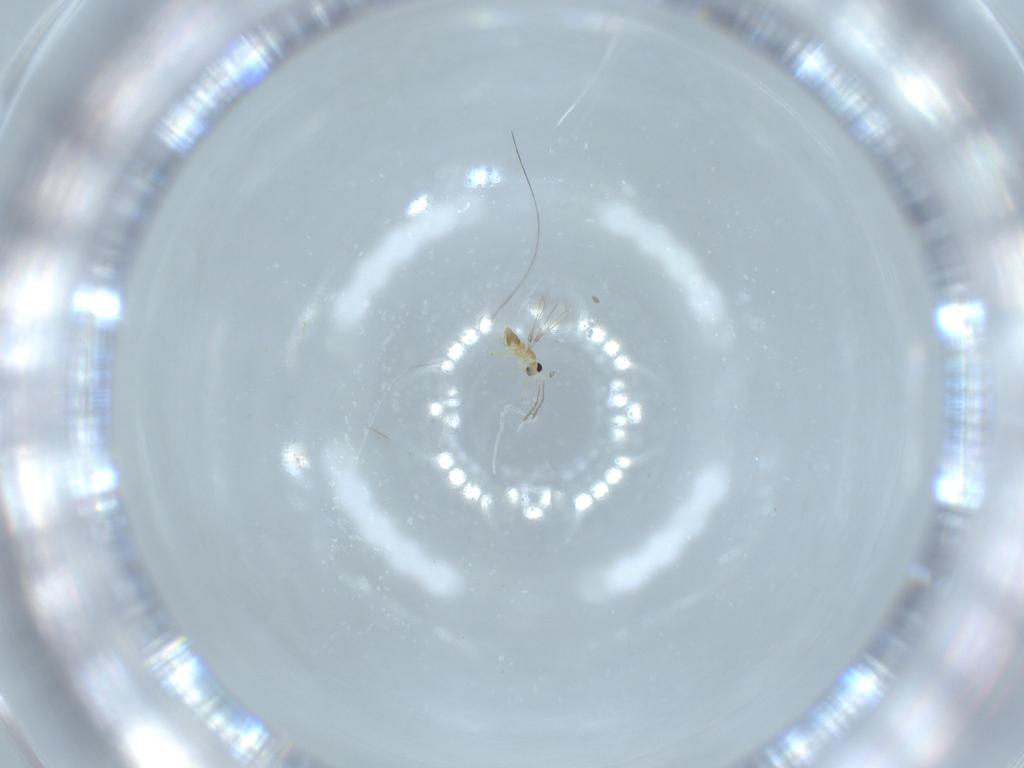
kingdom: Animalia
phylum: Arthropoda
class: Insecta
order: Hymenoptera
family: Mymaridae
